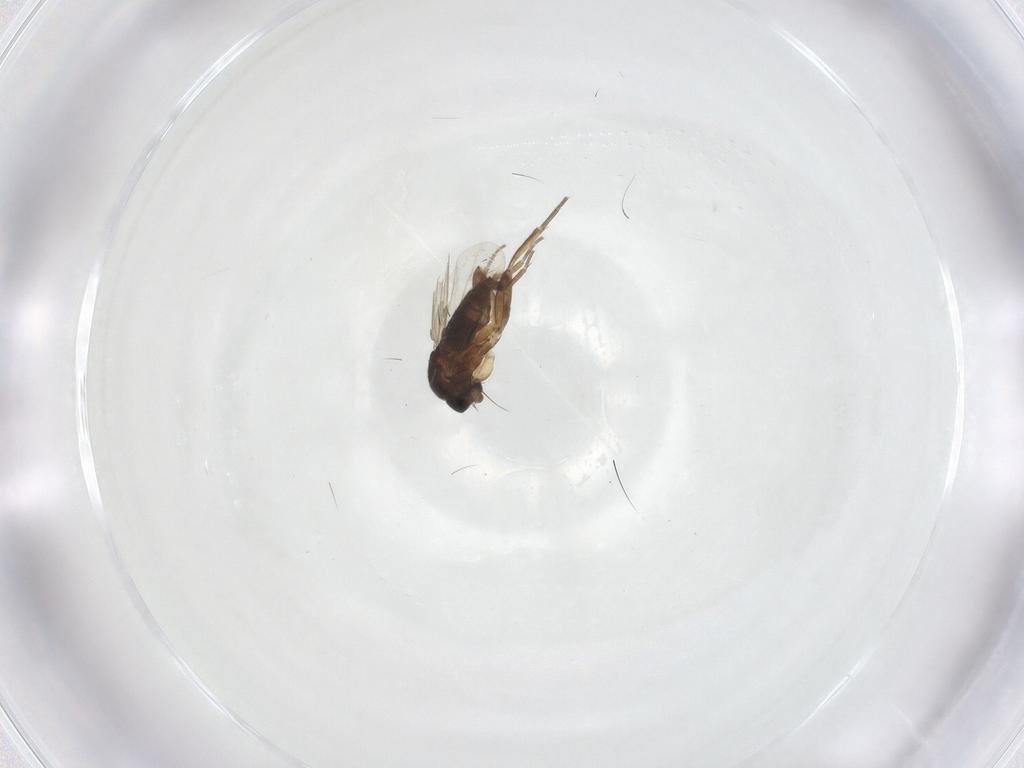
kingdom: Animalia
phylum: Arthropoda
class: Insecta
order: Diptera
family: Phoridae
